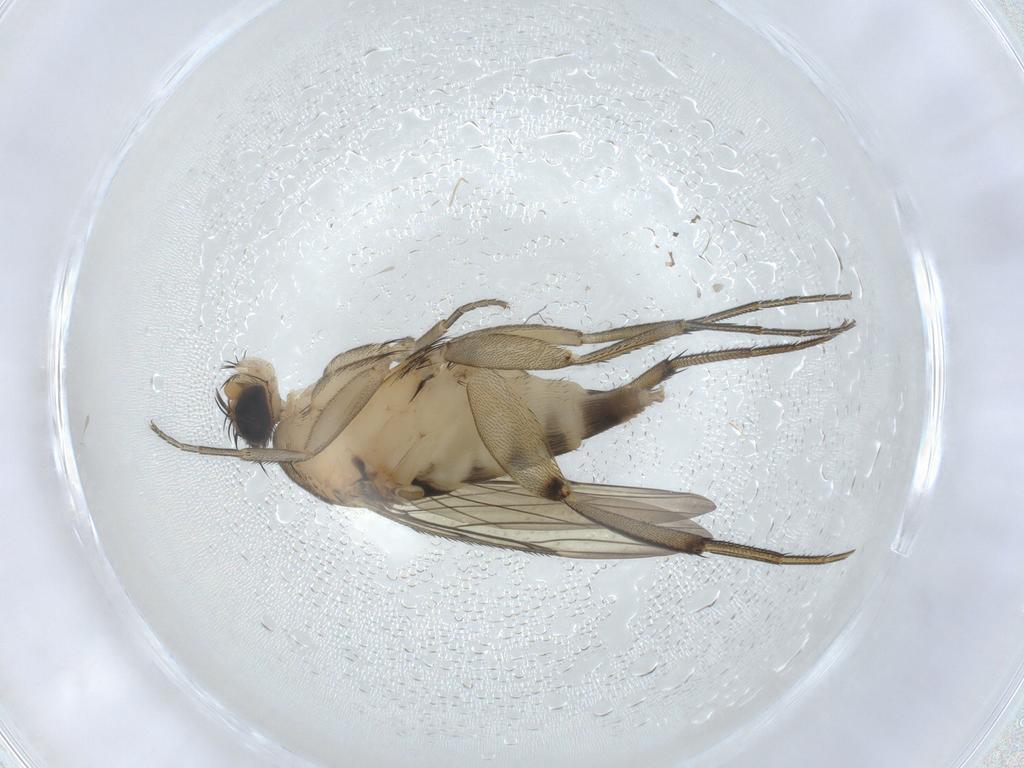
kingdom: Animalia
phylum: Arthropoda
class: Insecta
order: Diptera
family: Phoridae
